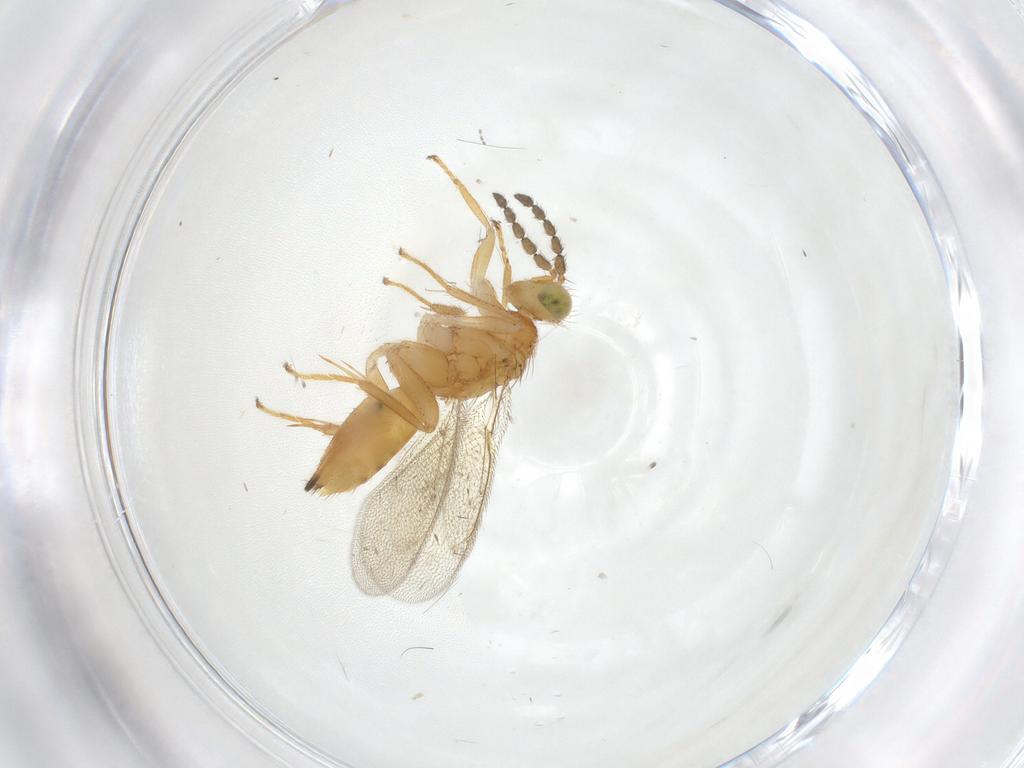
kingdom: Animalia
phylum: Arthropoda
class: Insecta
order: Hymenoptera
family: Eulophidae
